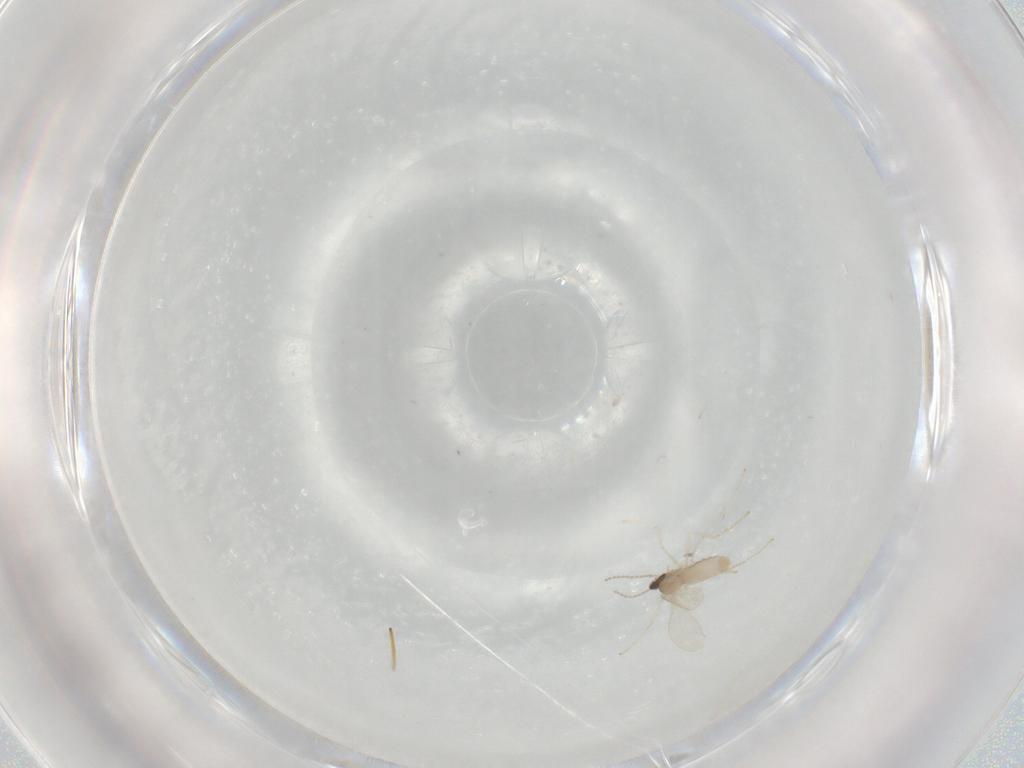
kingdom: Animalia
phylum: Arthropoda
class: Insecta
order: Diptera
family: Cecidomyiidae
